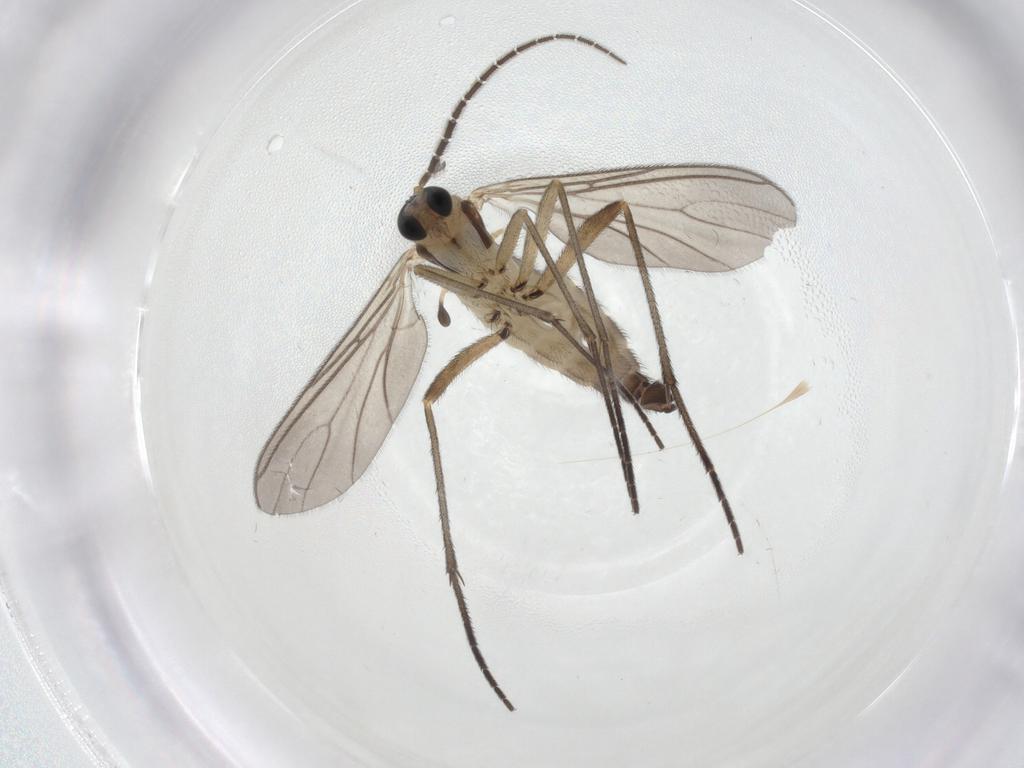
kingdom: Animalia
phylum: Arthropoda
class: Insecta
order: Diptera
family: Sciaridae
